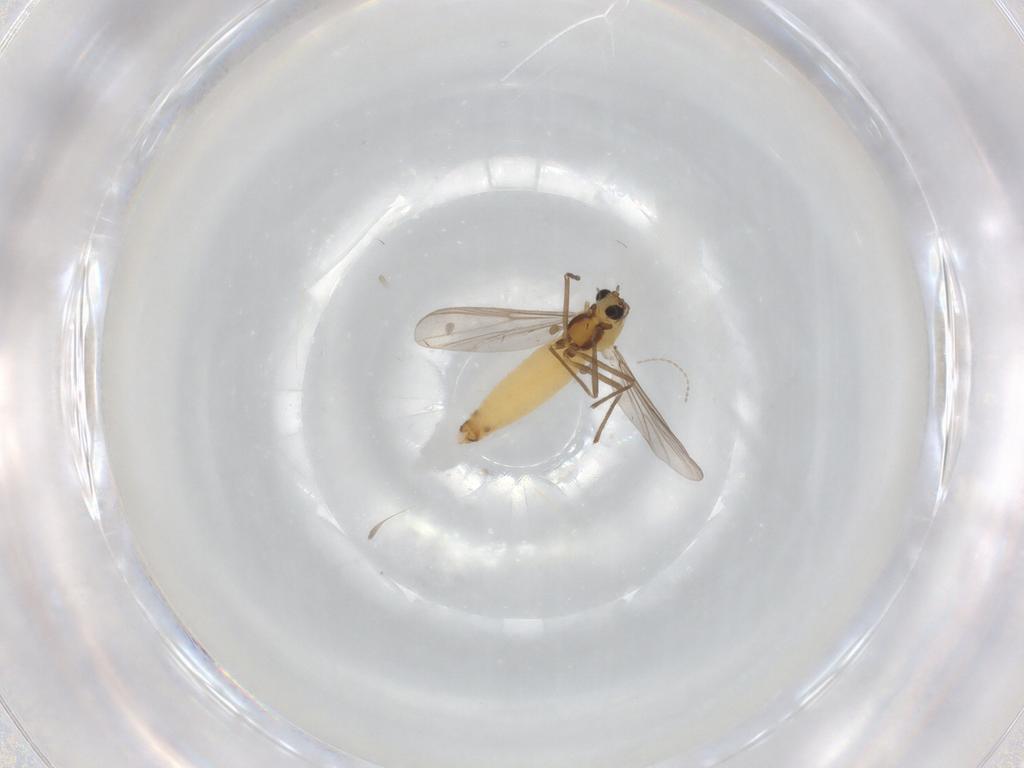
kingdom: Animalia
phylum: Arthropoda
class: Insecta
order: Diptera
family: Chironomidae
